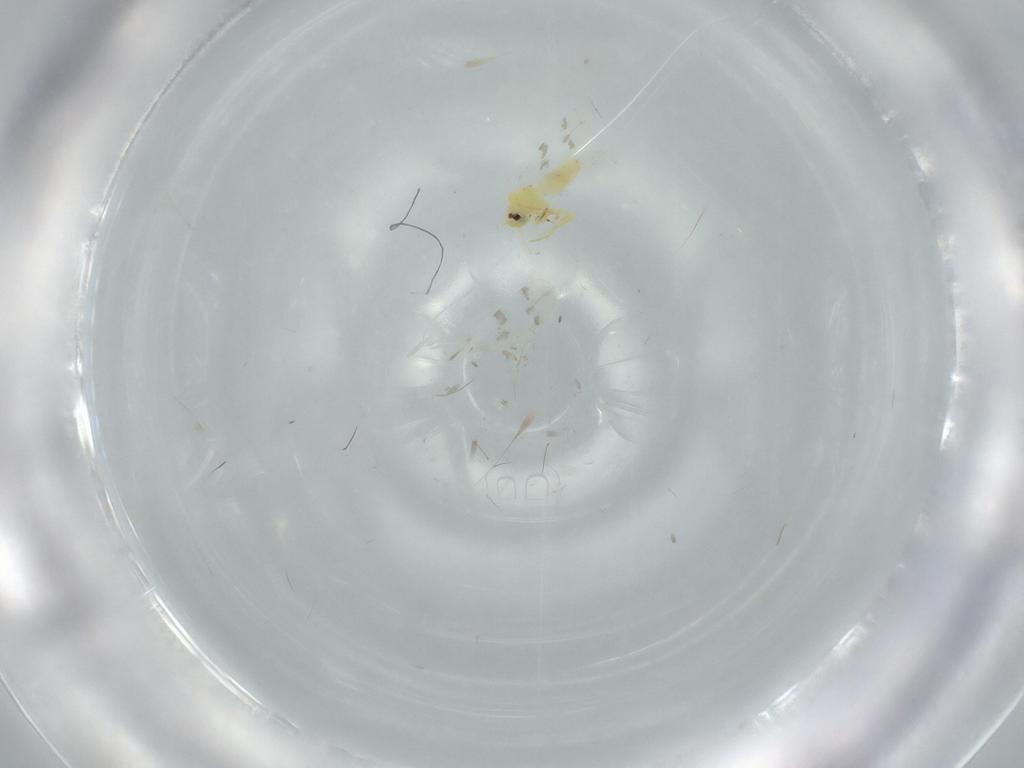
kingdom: Animalia
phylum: Arthropoda
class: Insecta
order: Hemiptera
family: Aleyrodidae
